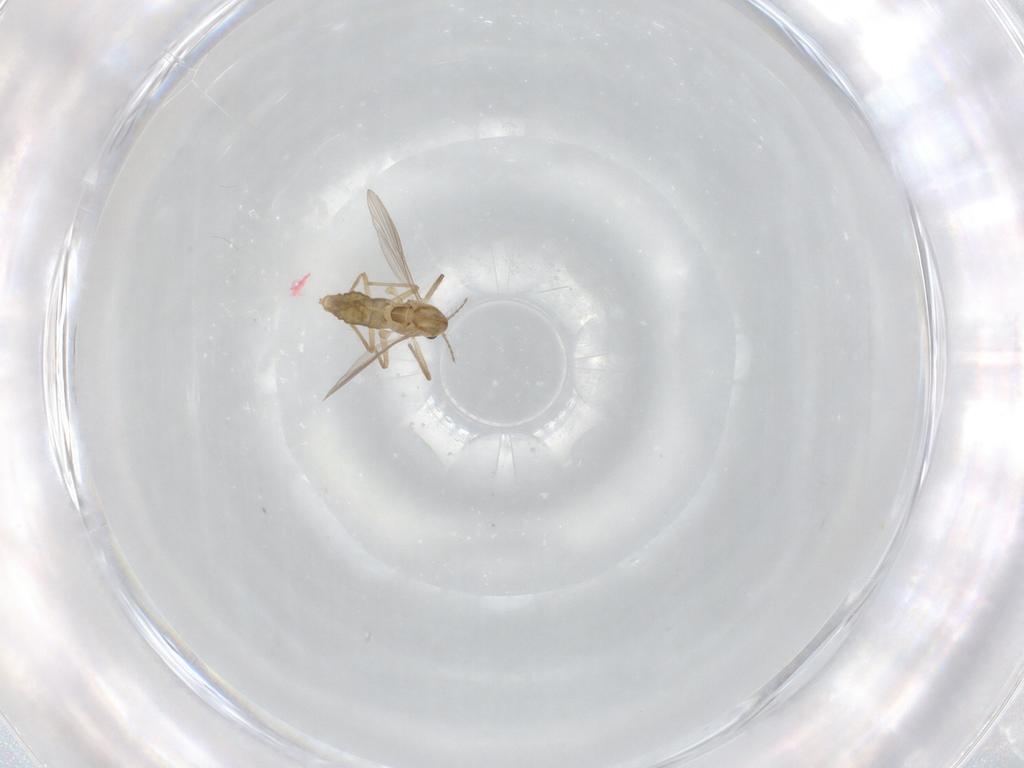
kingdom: Animalia
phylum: Arthropoda
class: Insecta
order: Diptera
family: Chironomidae
